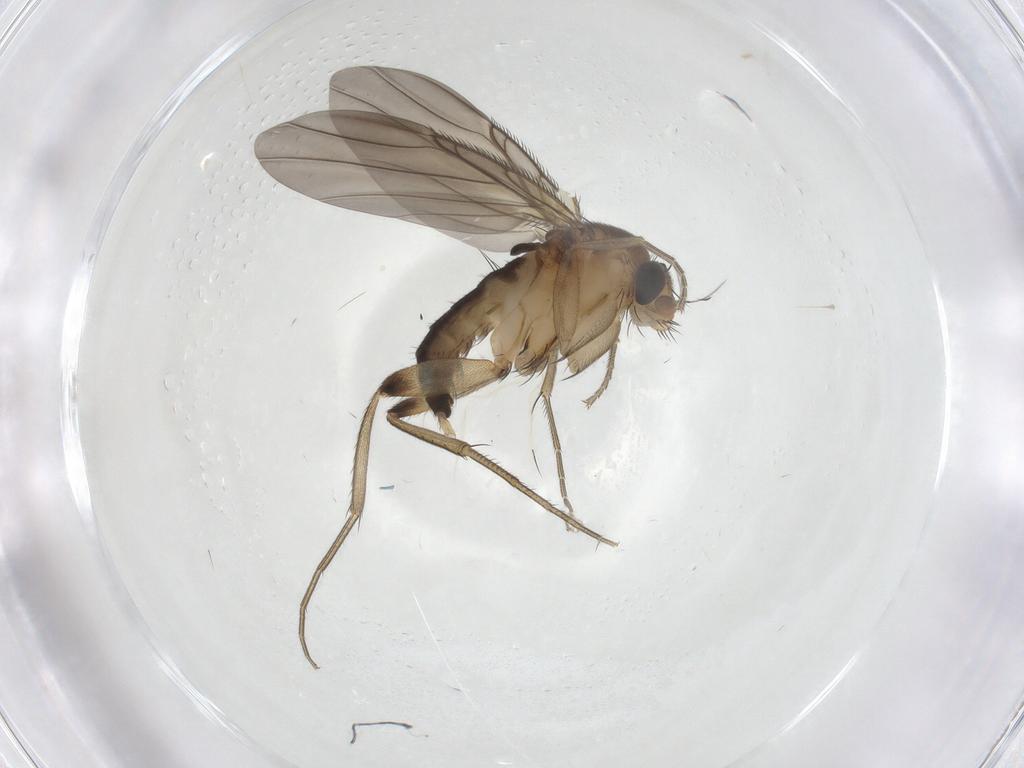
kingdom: Animalia
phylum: Arthropoda
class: Insecta
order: Diptera
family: Phoridae
